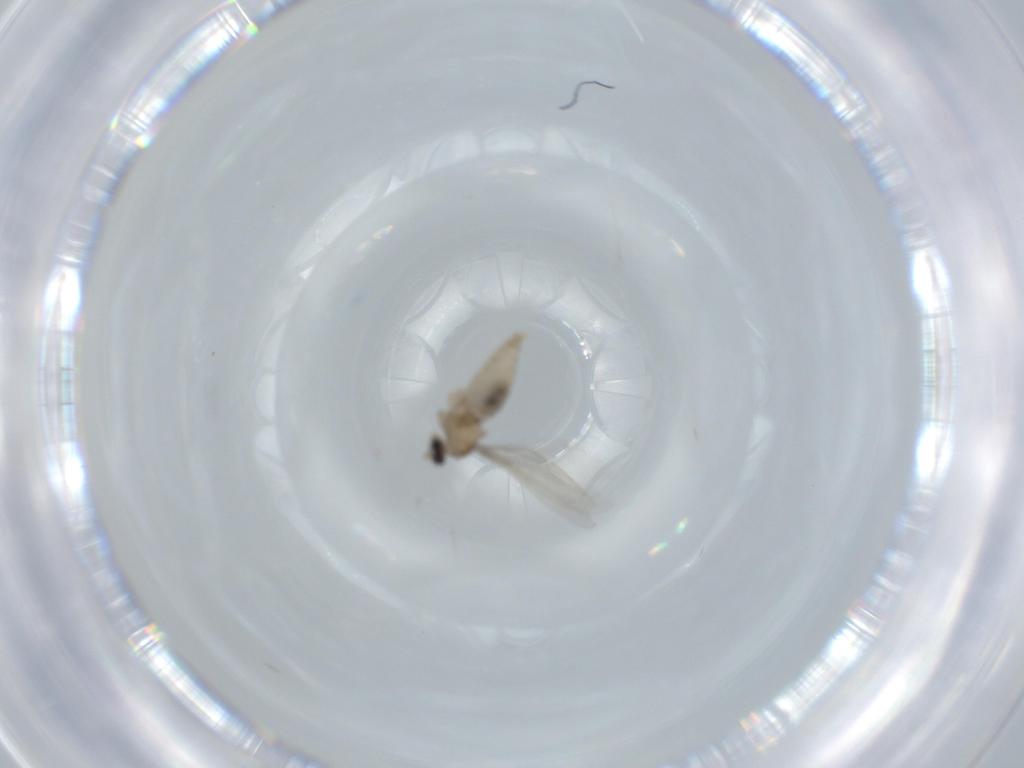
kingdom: Animalia
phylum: Arthropoda
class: Insecta
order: Diptera
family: Cecidomyiidae
